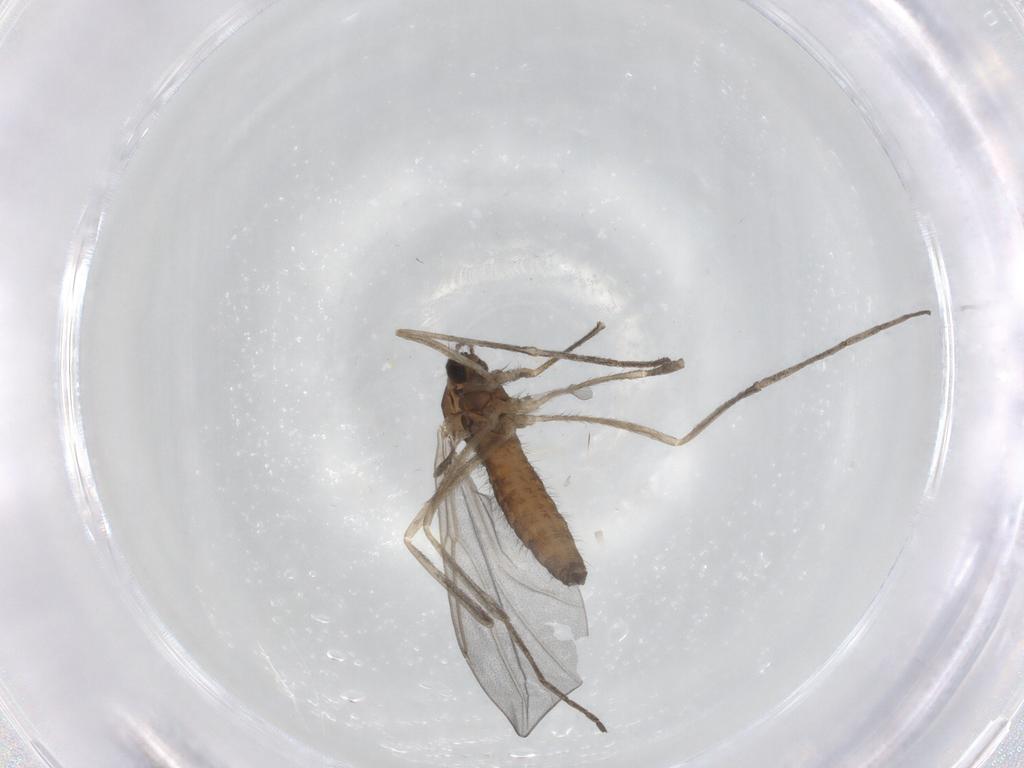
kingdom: Animalia
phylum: Arthropoda
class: Insecta
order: Diptera
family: Cecidomyiidae
